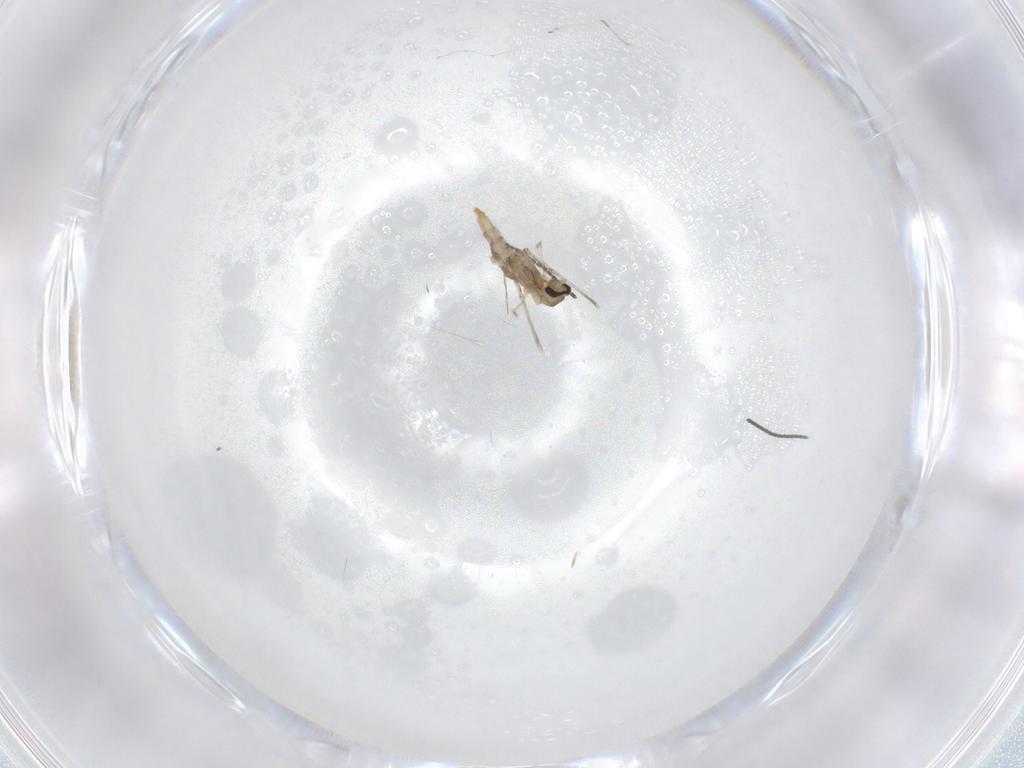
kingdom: Animalia
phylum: Arthropoda
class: Insecta
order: Diptera
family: Cecidomyiidae
